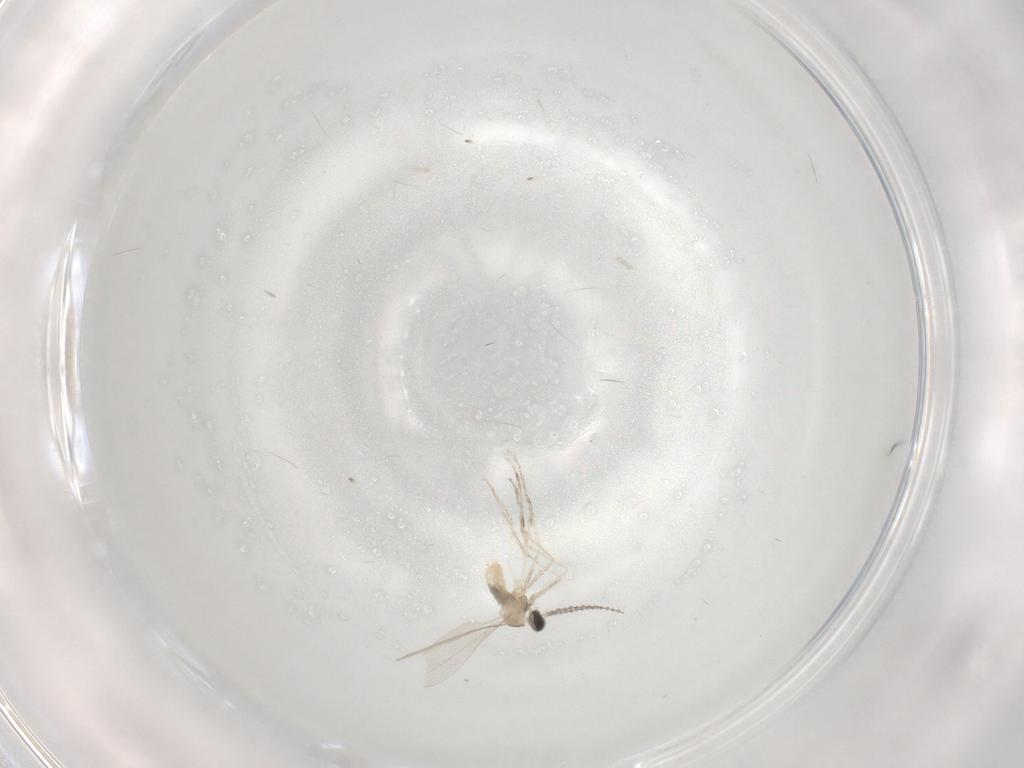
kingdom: Animalia
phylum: Arthropoda
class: Insecta
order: Diptera
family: Cecidomyiidae
